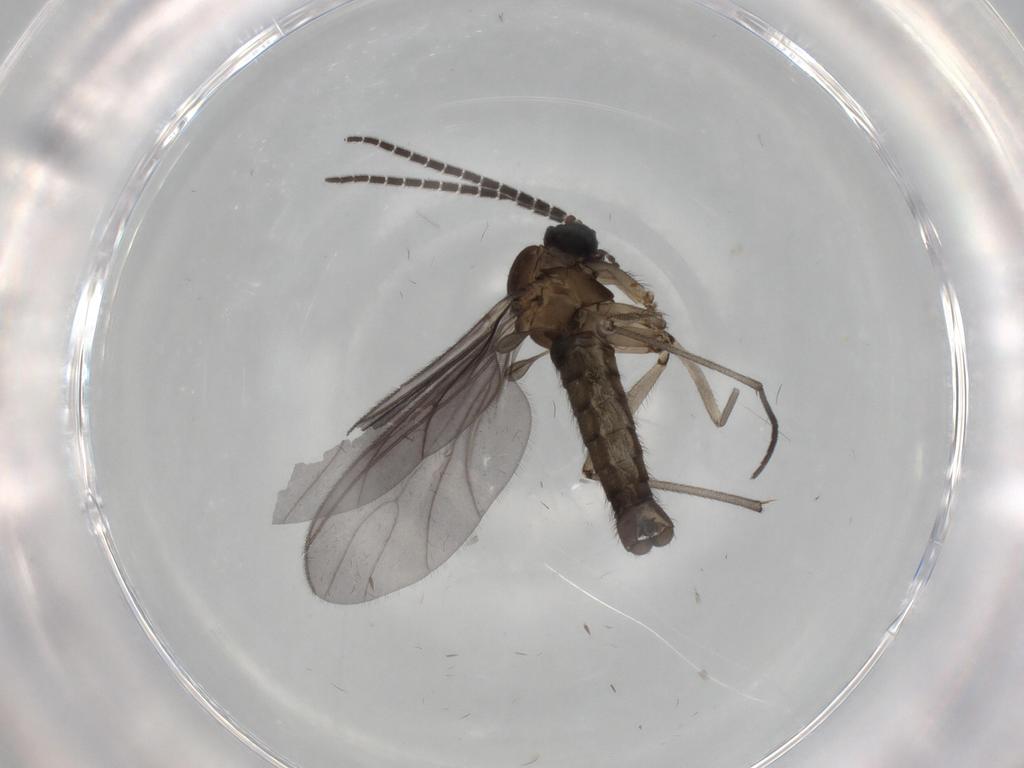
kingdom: Animalia
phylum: Arthropoda
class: Insecta
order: Diptera
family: Sciaridae
